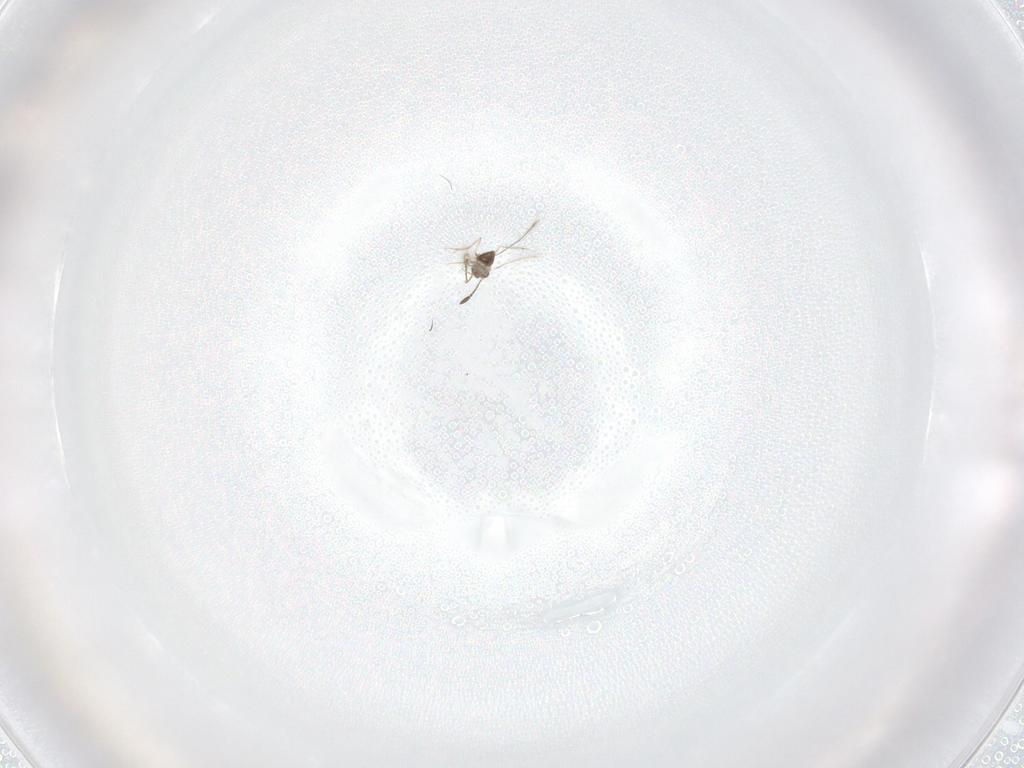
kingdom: Animalia
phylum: Arthropoda
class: Insecta
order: Hymenoptera
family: Mymaridae
